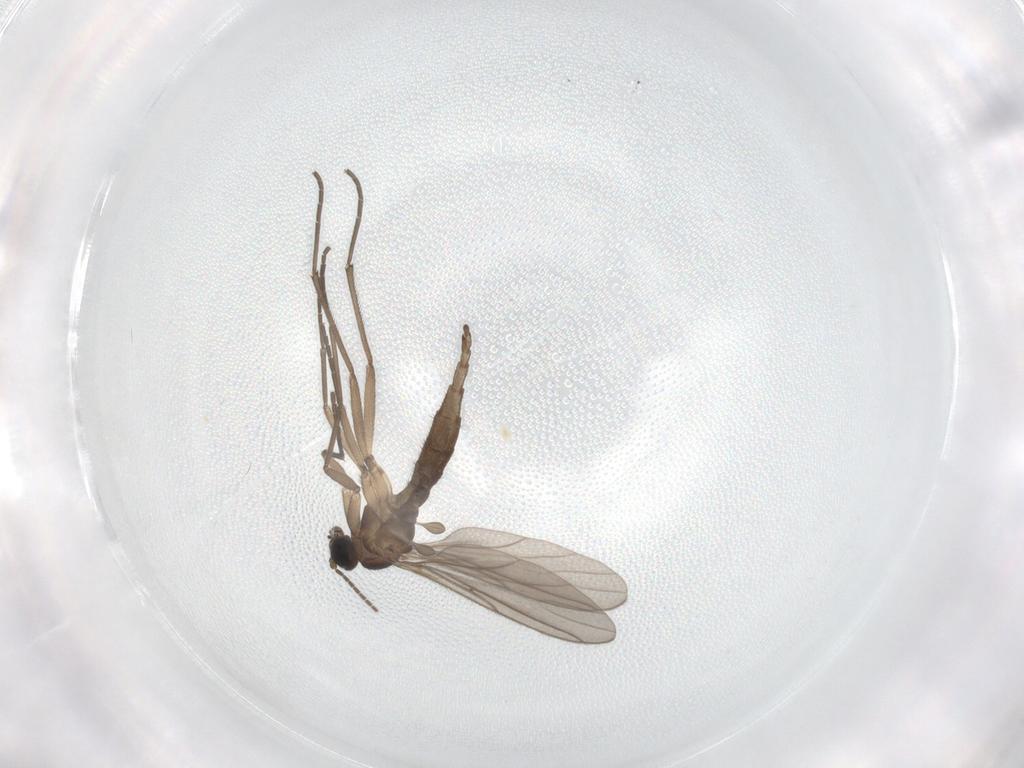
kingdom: Animalia
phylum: Arthropoda
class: Insecta
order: Diptera
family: Sciaridae
